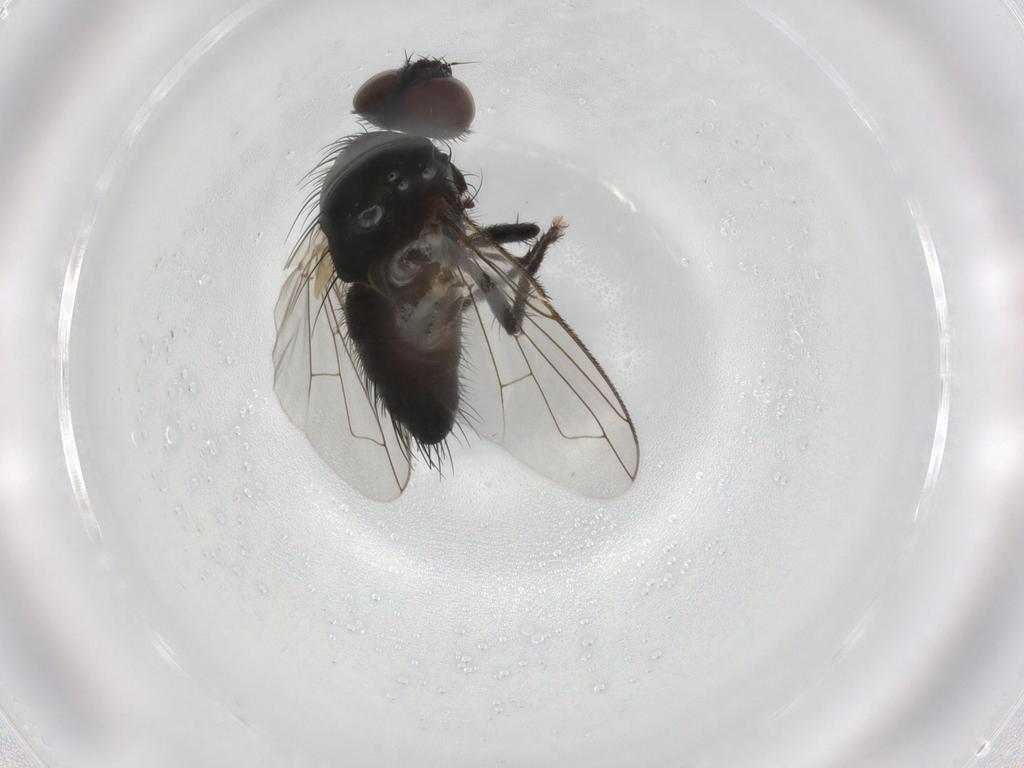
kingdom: Animalia
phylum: Arthropoda
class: Insecta
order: Diptera
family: Tachinidae
